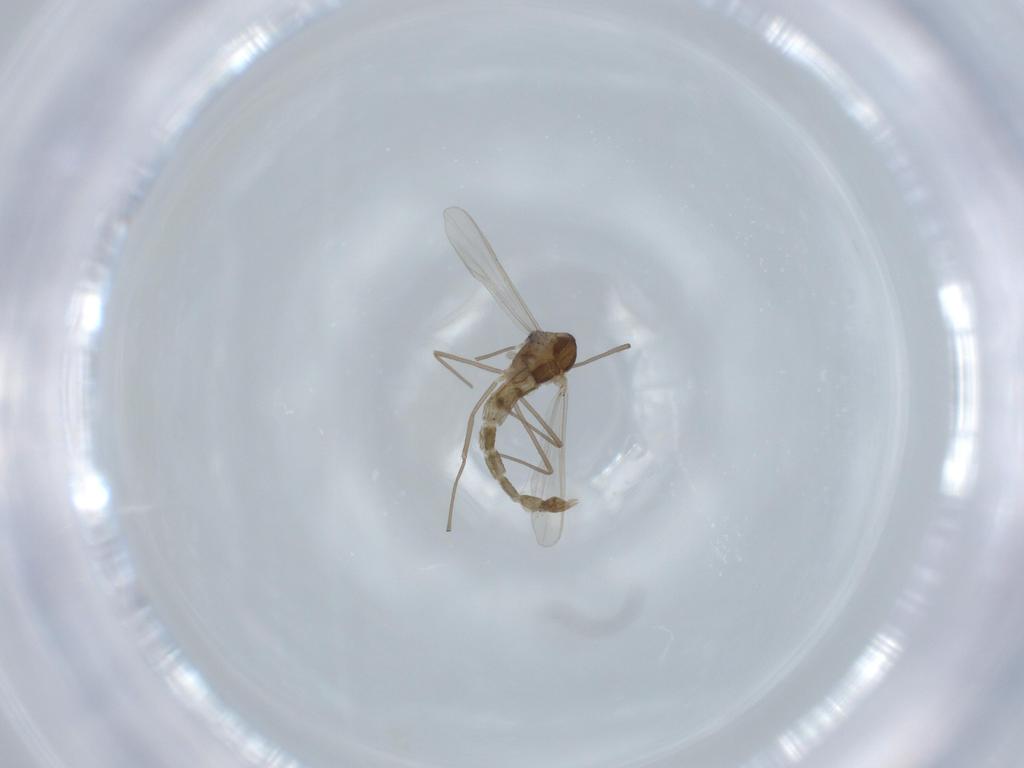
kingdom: Animalia
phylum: Arthropoda
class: Insecta
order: Diptera
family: Chironomidae
